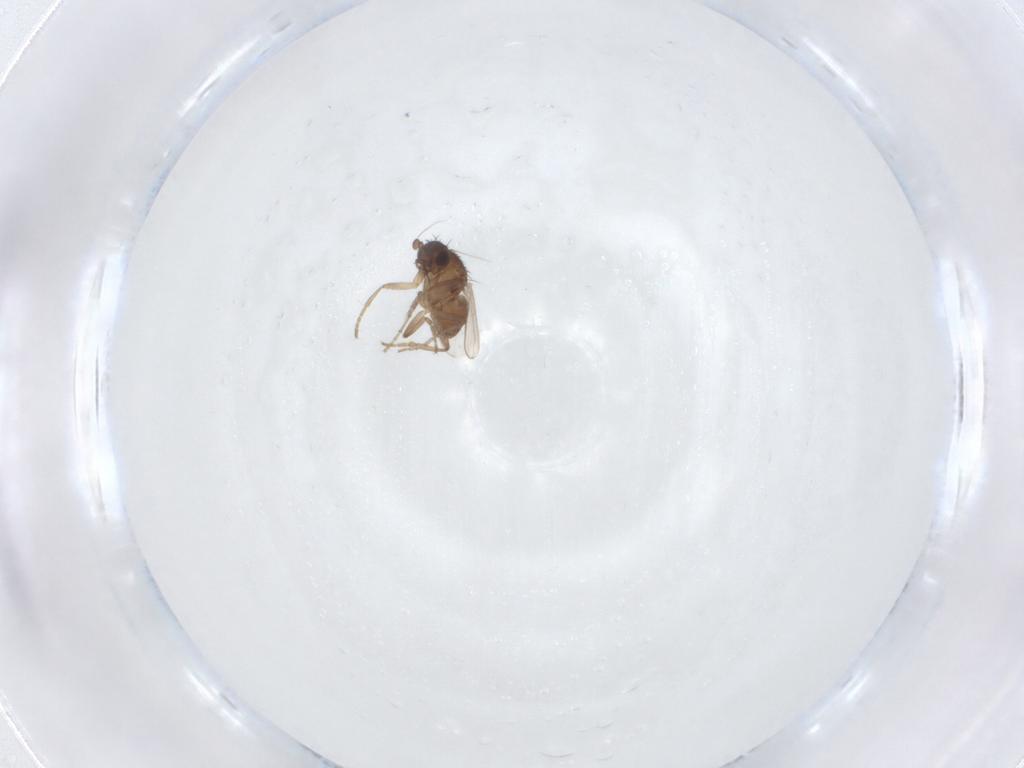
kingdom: Animalia
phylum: Arthropoda
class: Insecta
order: Diptera
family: Sphaeroceridae
